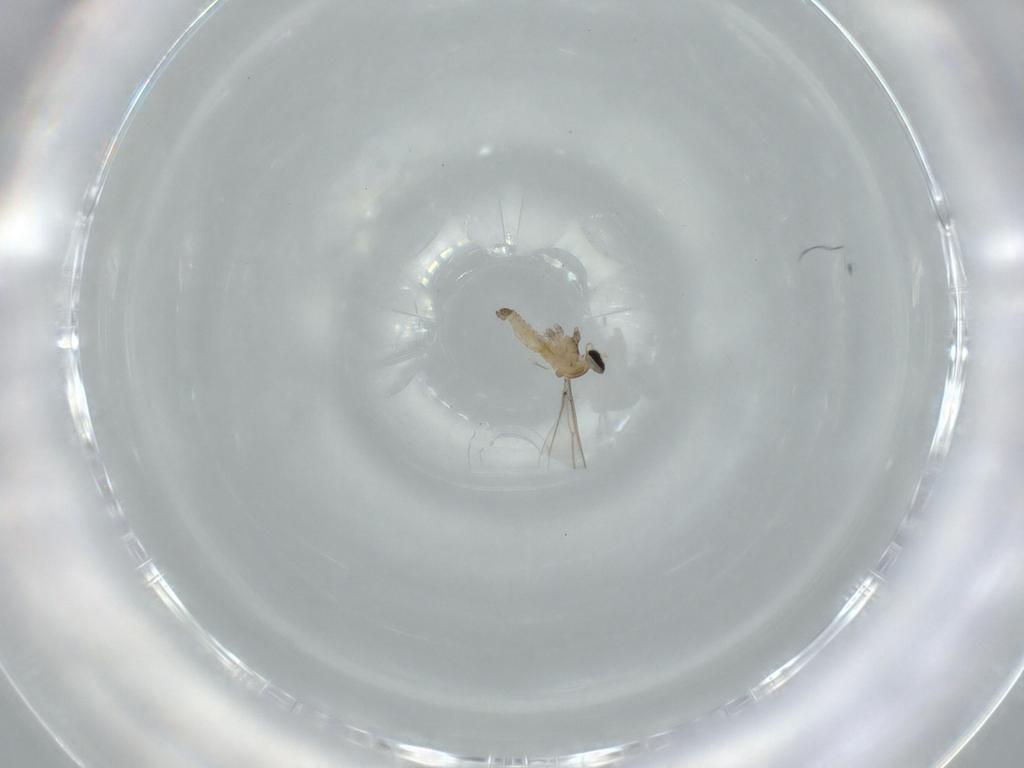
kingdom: Animalia
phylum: Arthropoda
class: Insecta
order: Diptera
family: Cecidomyiidae
